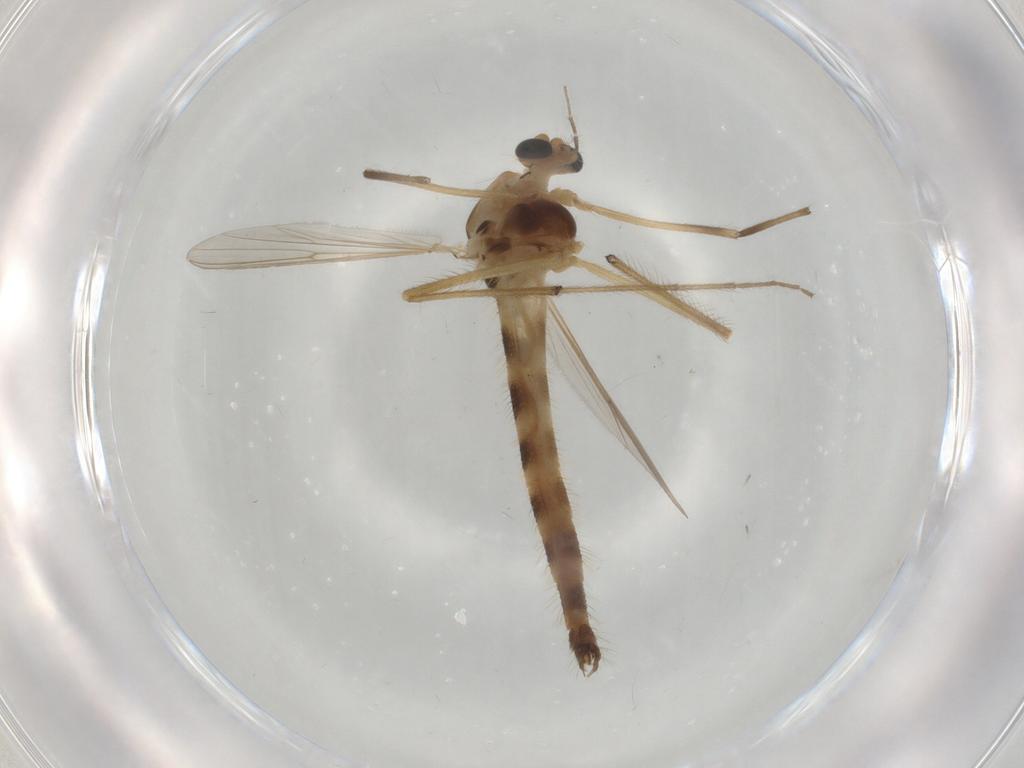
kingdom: Animalia
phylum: Arthropoda
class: Insecta
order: Diptera
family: Chironomidae
